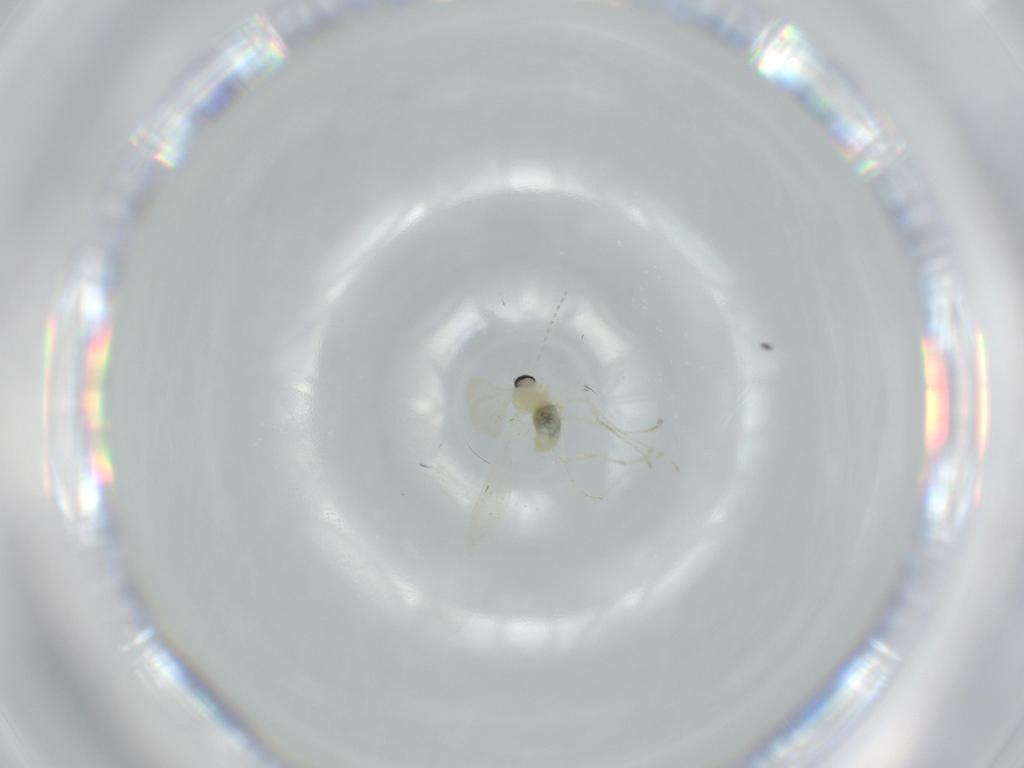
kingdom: Animalia
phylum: Arthropoda
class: Insecta
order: Diptera
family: Cecidomyiidae
